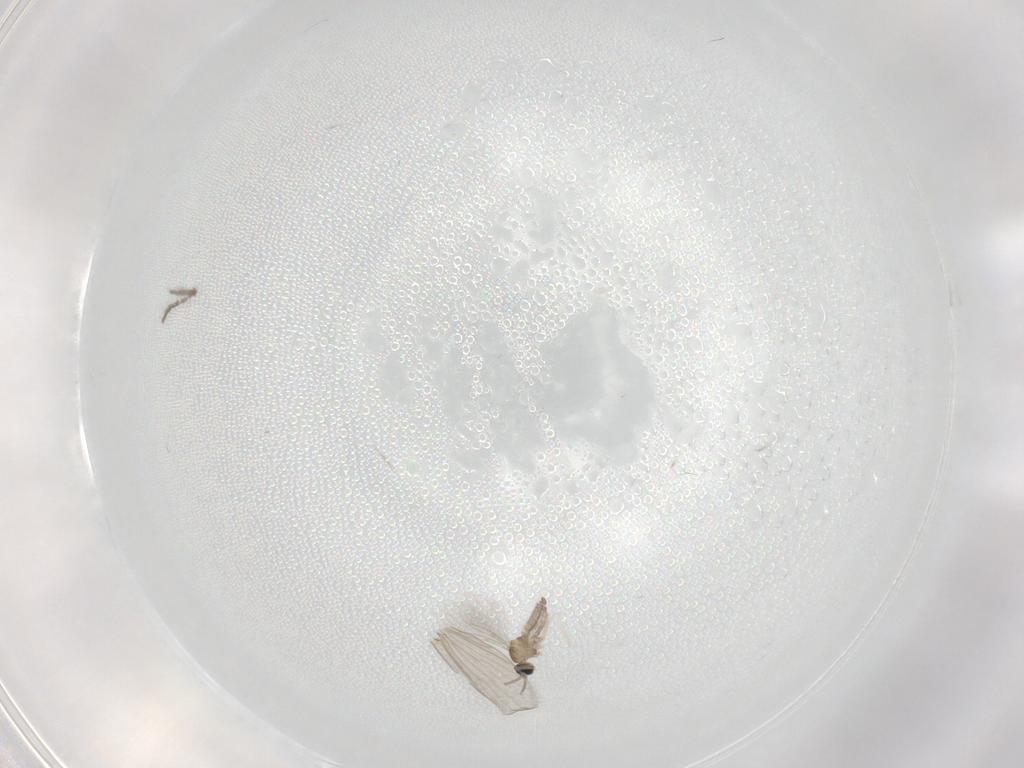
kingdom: Animalia
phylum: Arthropoda
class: Insecta
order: Diptera
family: Cecidomyiidae
